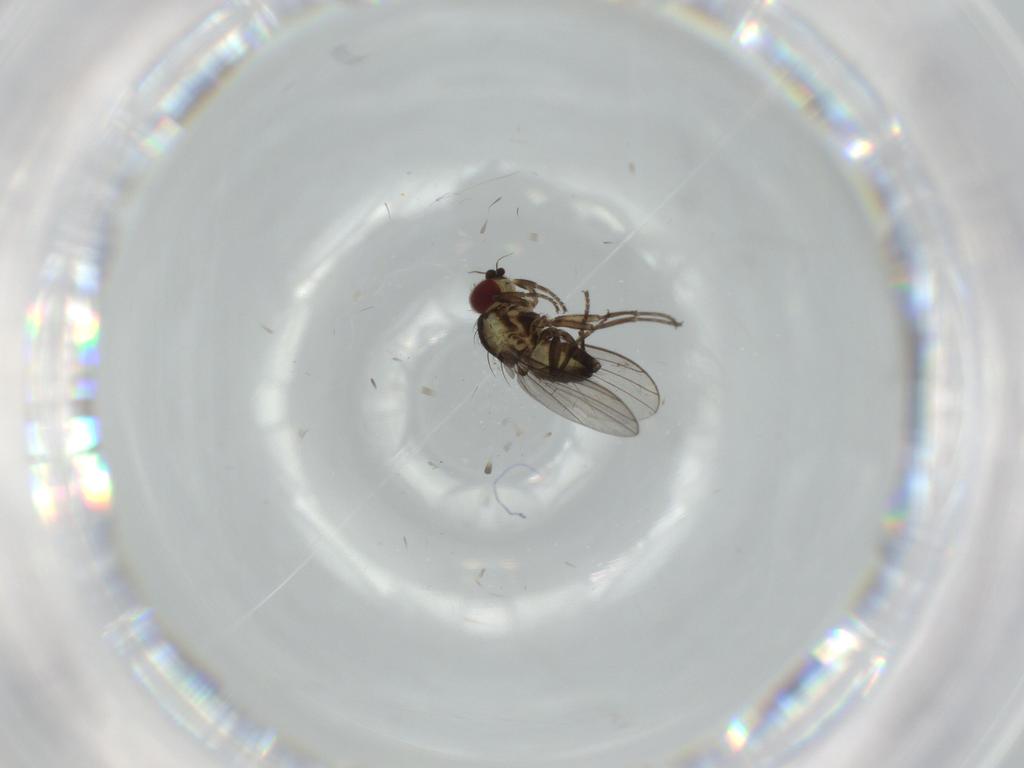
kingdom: Animalia
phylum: Arthropoda
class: Insecta
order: Diptera
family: Agromyzidae
